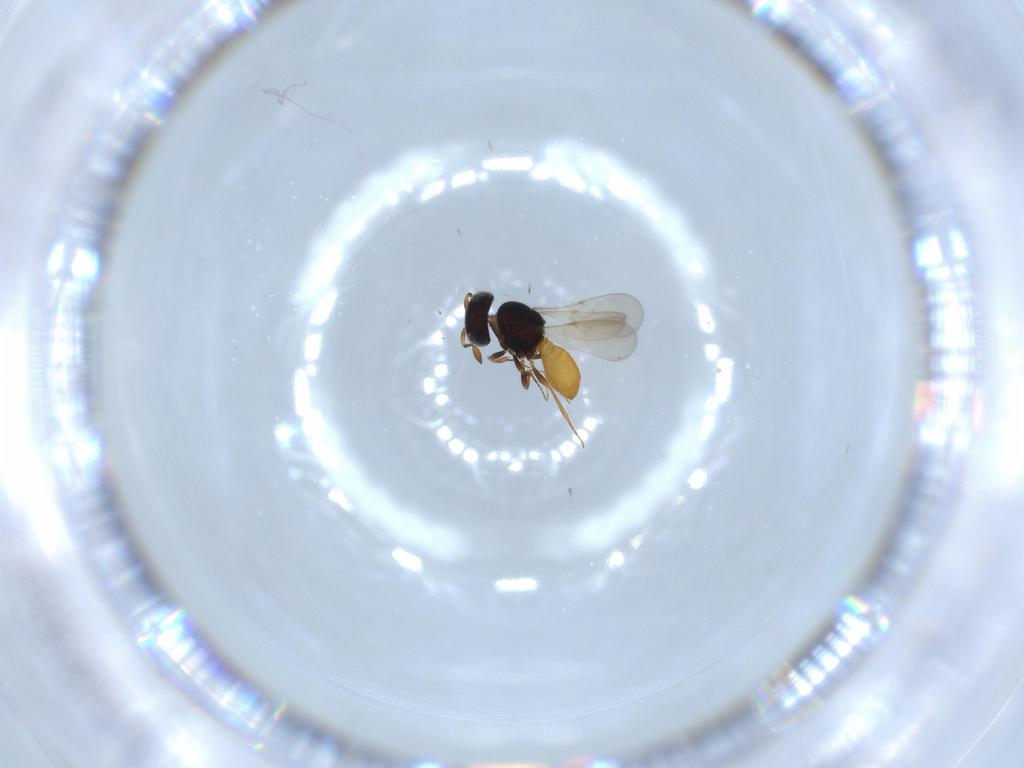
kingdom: Animalia
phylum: Arthropoda
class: Insecta
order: Hymenoptera
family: Scelionidae
